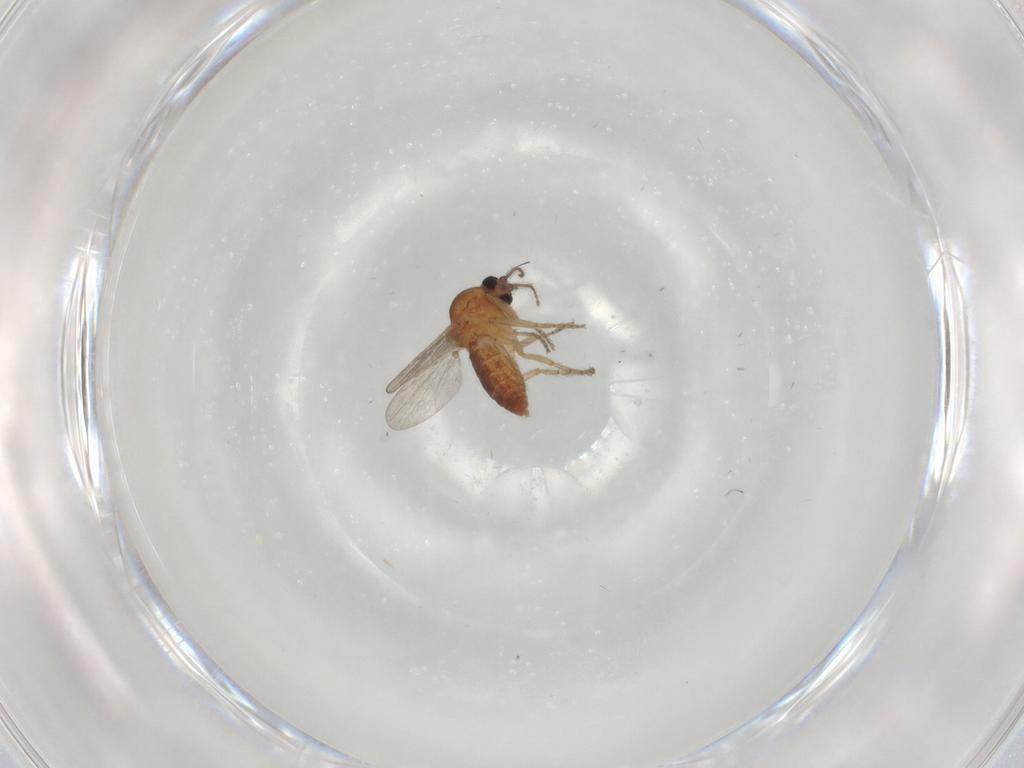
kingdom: Animalia
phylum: Arthropoda
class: Insecta
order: Diptera
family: Ceratopogonidae
